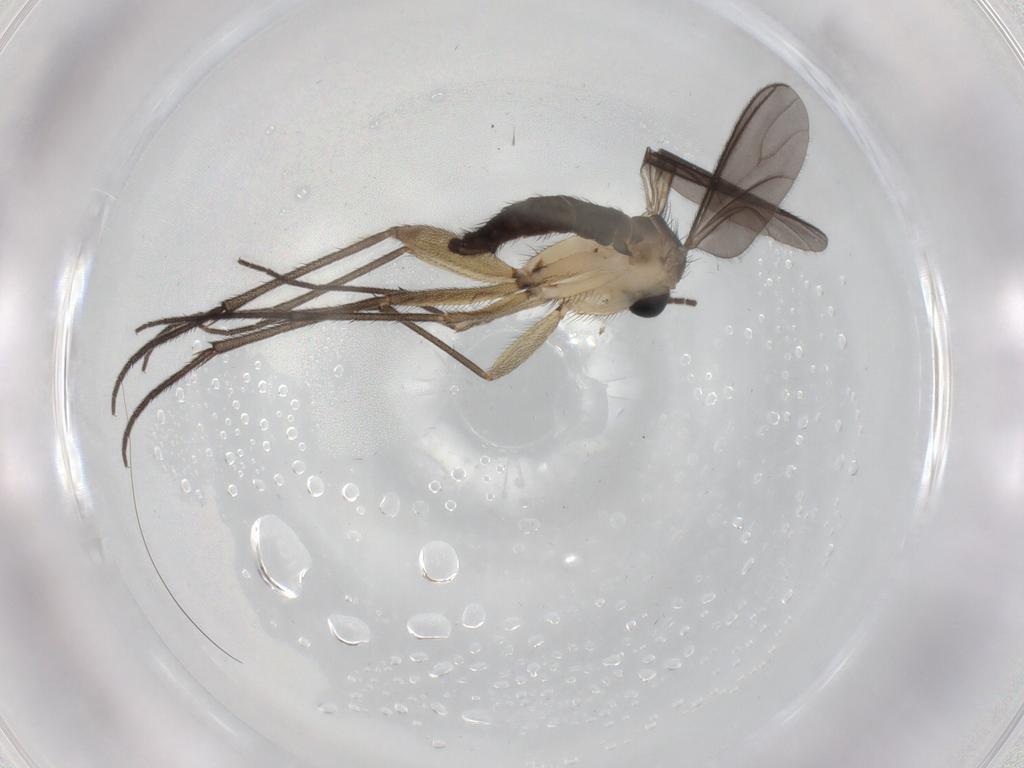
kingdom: Animalia
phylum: Arthropoda
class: Insecta
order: Diptera
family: Sciaridae
